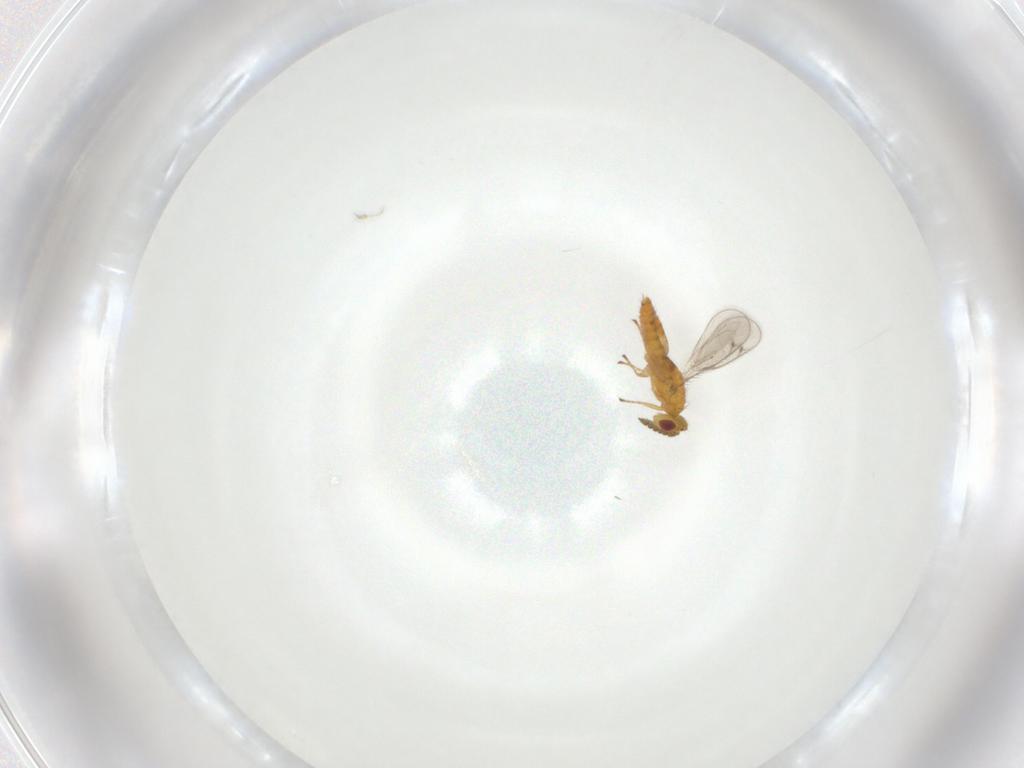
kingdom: Animalia
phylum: Arthropoda
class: Insecta
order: Hymenoptera
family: Eulophidae
